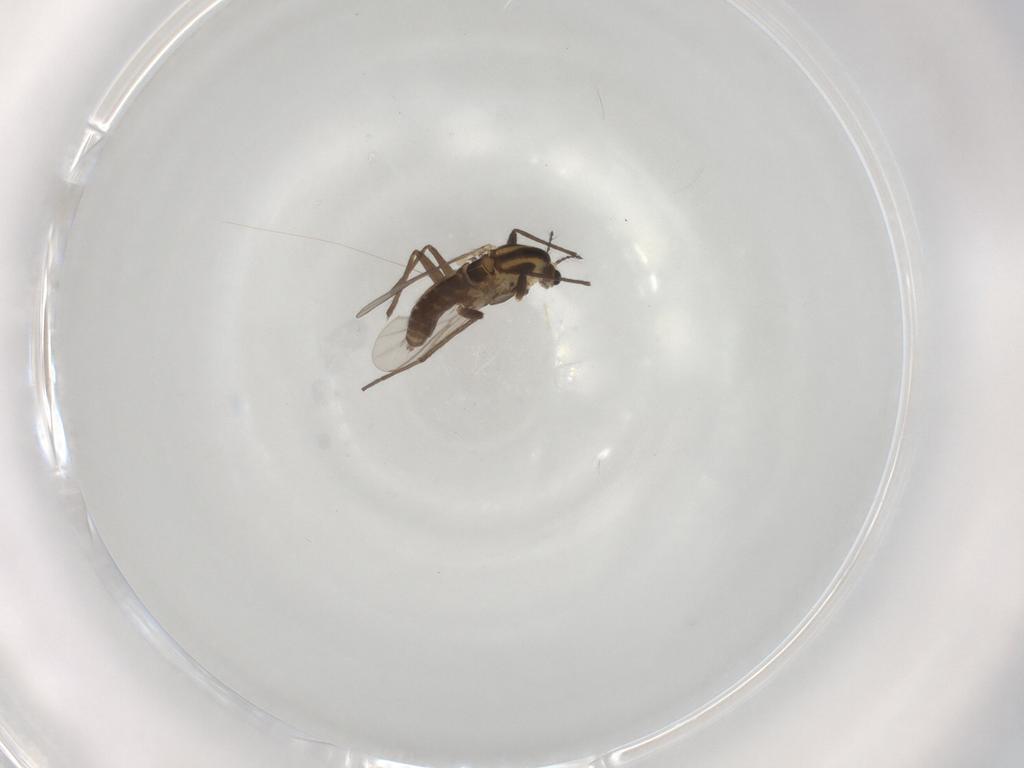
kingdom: Animalia
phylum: Arthropoda
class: Insecta
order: Diptera
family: Chironomidae
